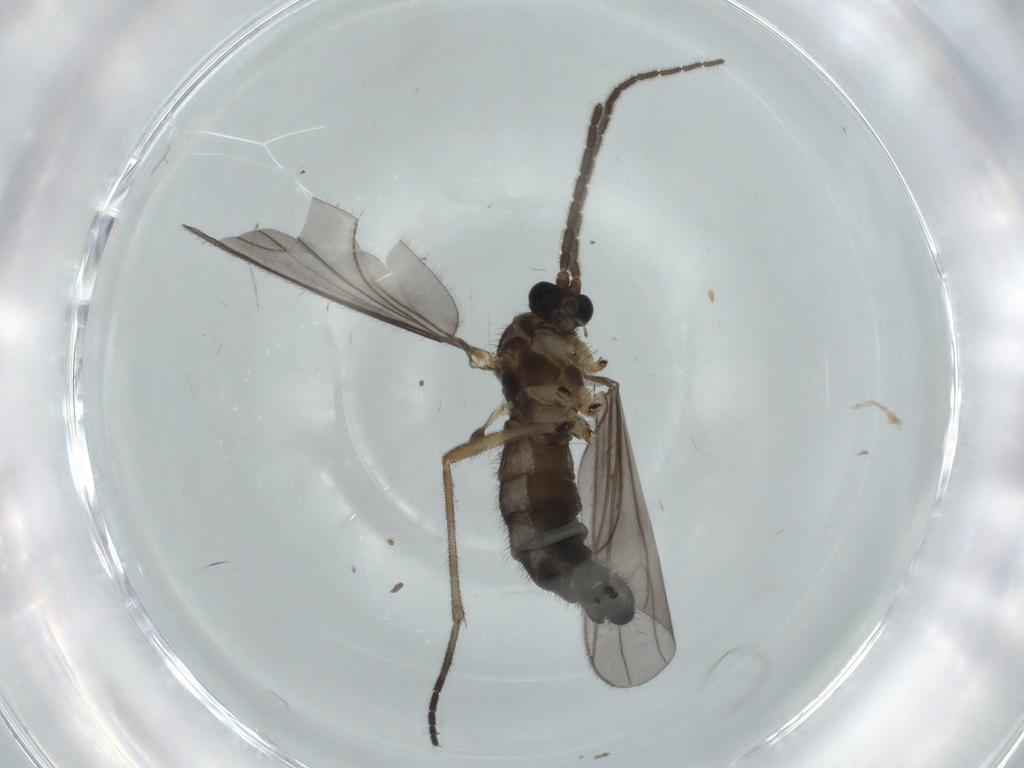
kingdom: Animalia
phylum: Arthropoda
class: Insecta
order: Diptera
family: Sciaridae
